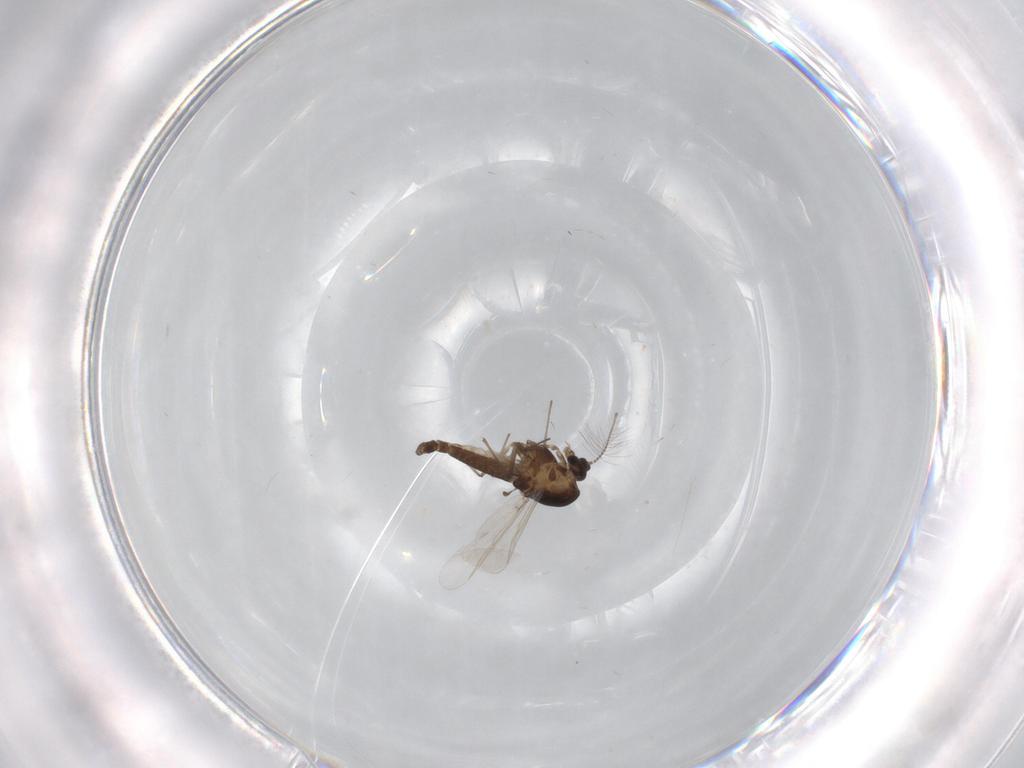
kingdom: Animalia
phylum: Arthropoda
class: Insecta
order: Diptera
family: Chironomidae
